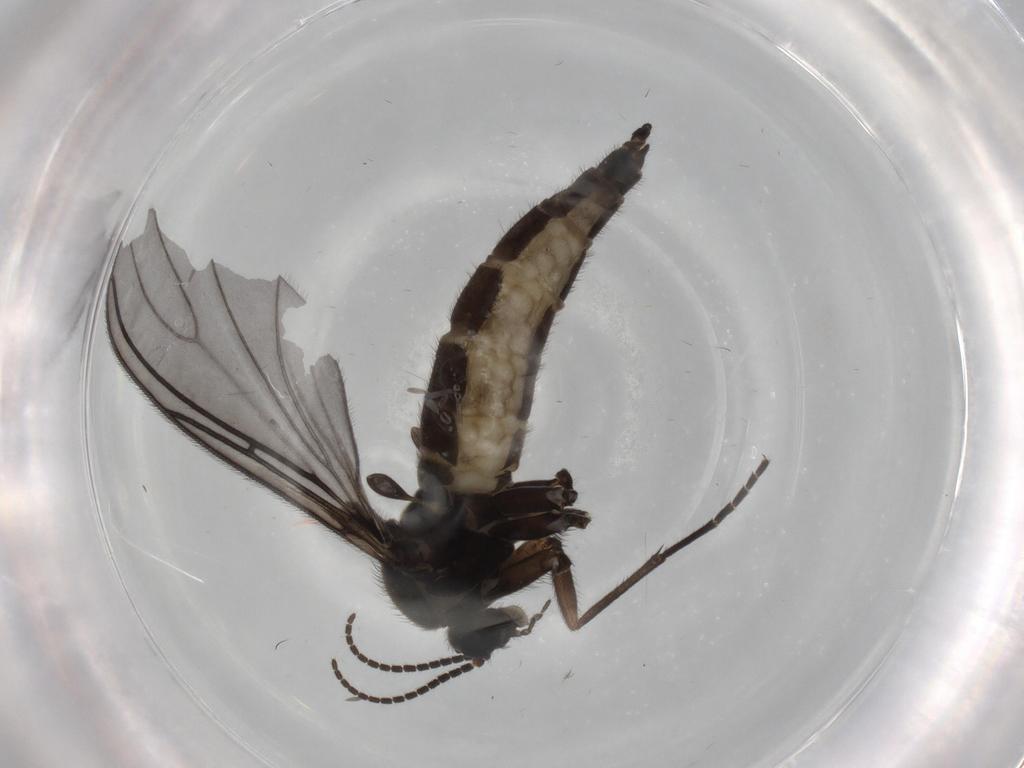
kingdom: Animalia
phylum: Arthropoda
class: Insecta
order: Diptera
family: Sciaridae
